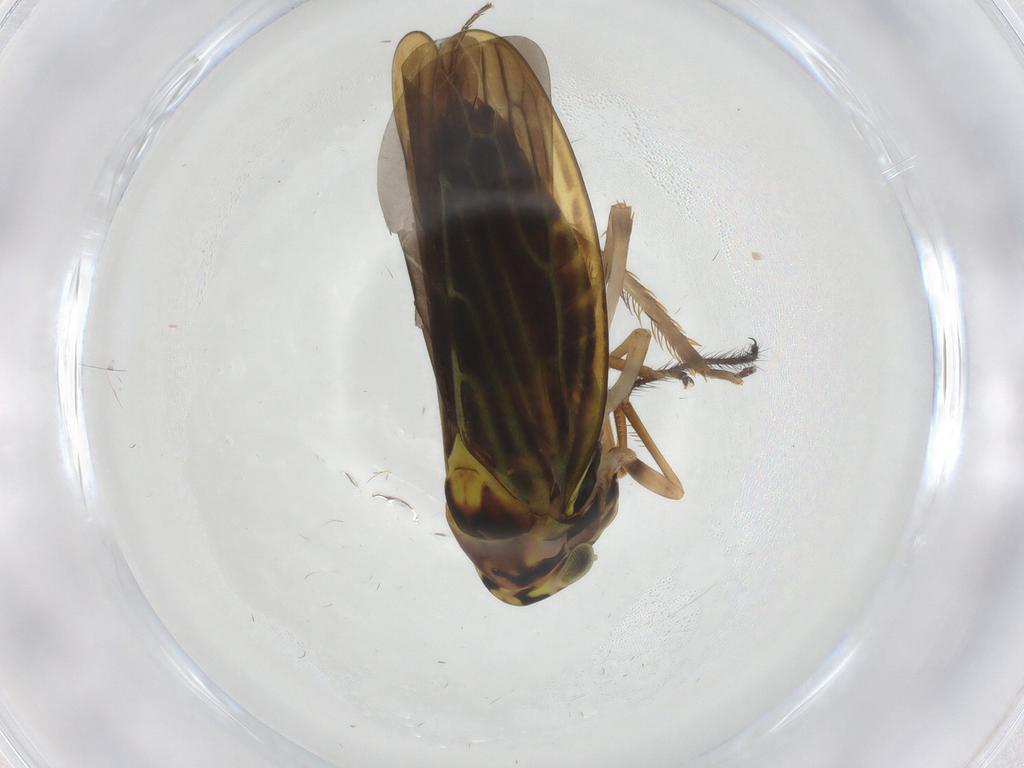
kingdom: Animalia
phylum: Arthropoda
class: Insecta
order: Hemiptera
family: Cicadellidae
